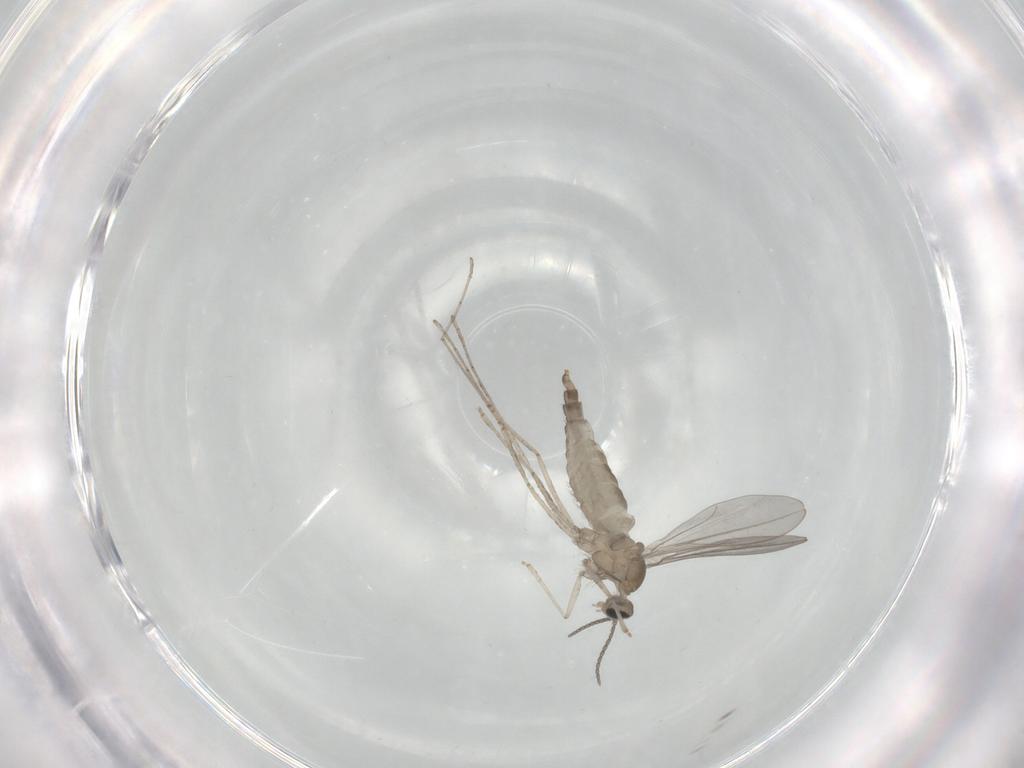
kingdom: Animalia
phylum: Arthropoda
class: Insecta
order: Diptera
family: Cecidomyiidae
